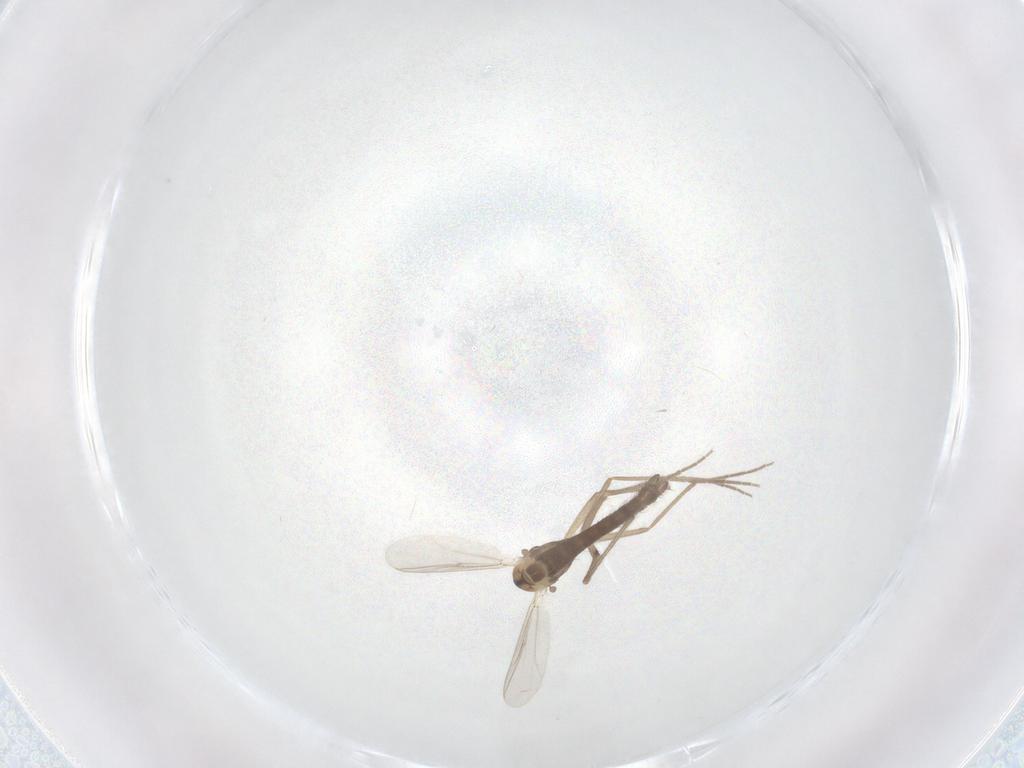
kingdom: Animalia
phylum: Arthropoda
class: Insecta
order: Diptera
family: Chironomidae
